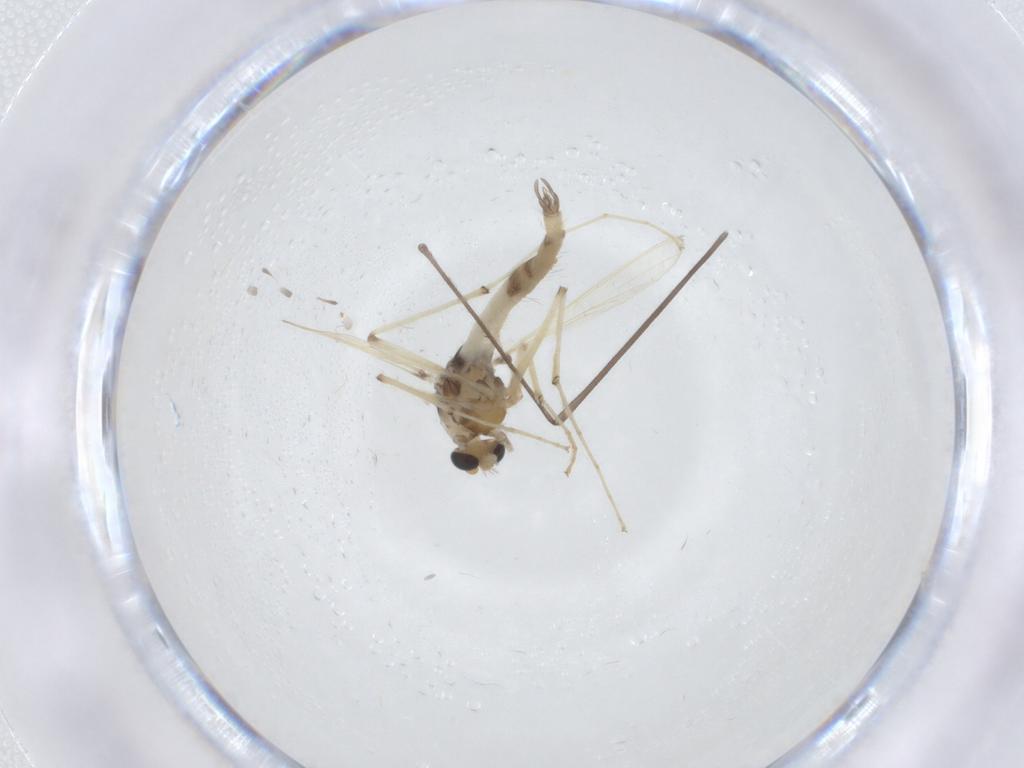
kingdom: Animalia
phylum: Arthropoda
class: Insecta
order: Diptera
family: Chironomidae
